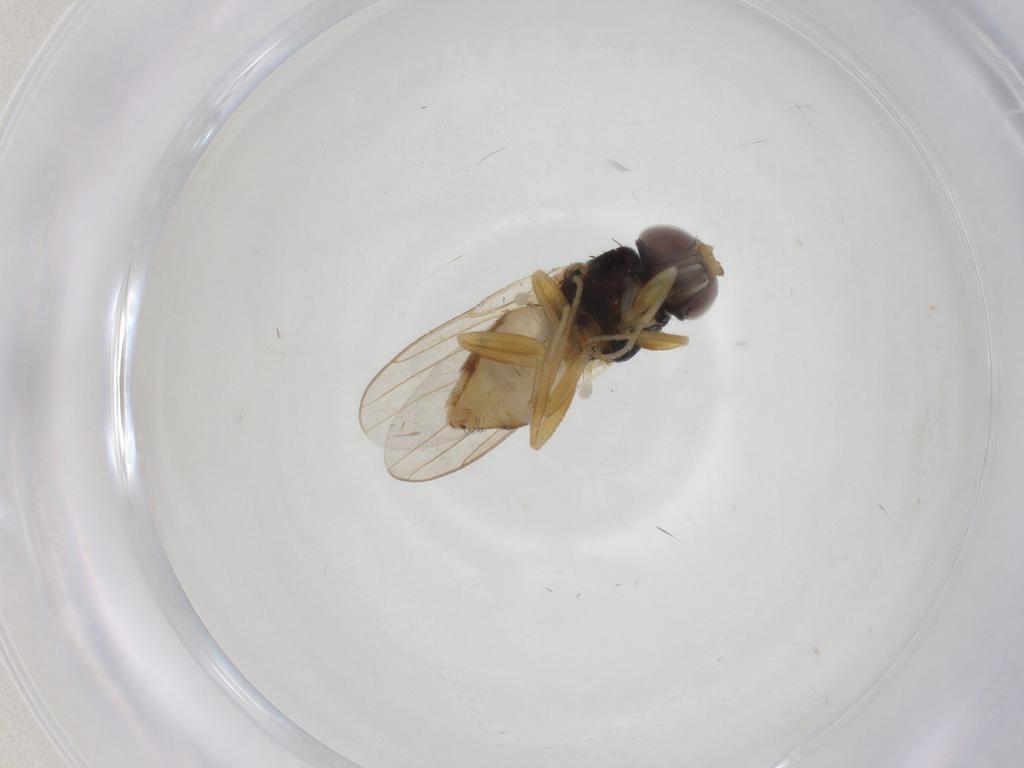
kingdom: Animalia
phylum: Arthropoda
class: Insecta
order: Diptera
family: Chloropidae
